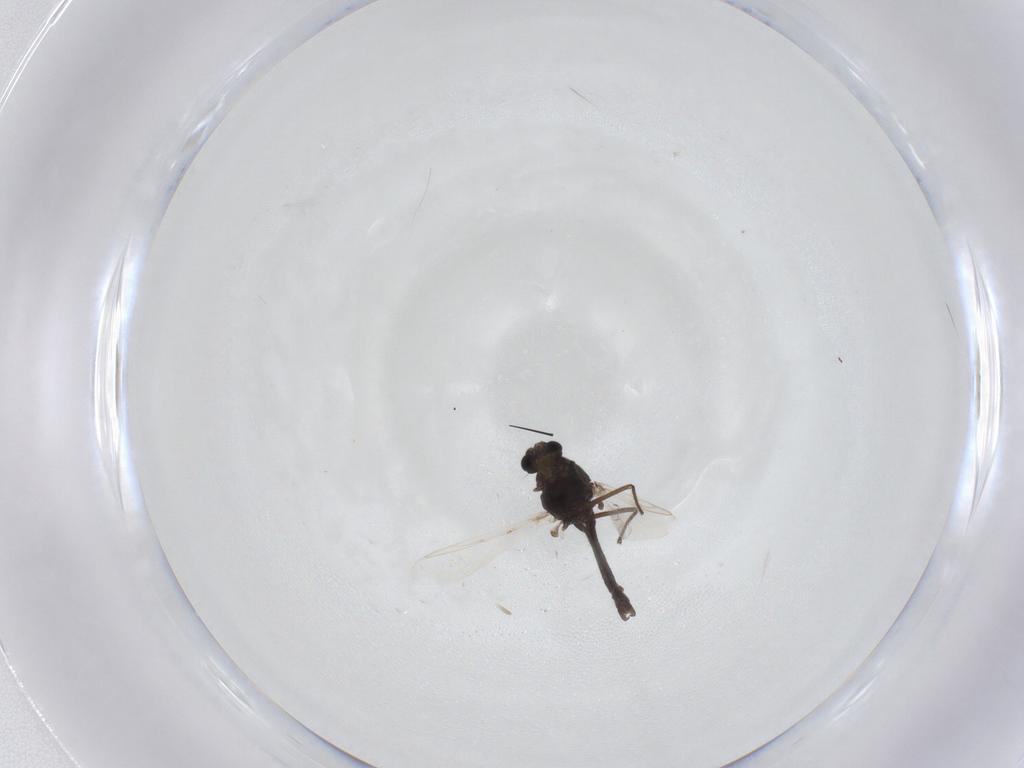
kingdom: Animalia
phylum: Arthropoda
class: Insecta
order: Diptera
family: Chironomidae
